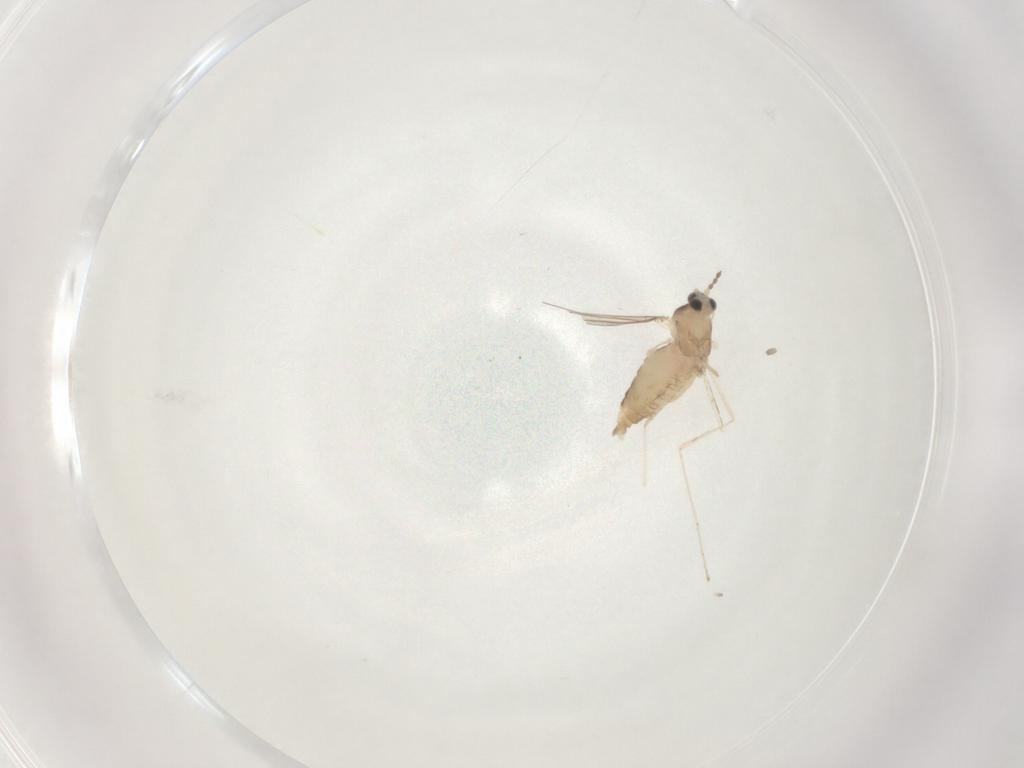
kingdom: Animalia
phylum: Arthropoda
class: Insecta
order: Diptera
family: Cecidomyiidae
